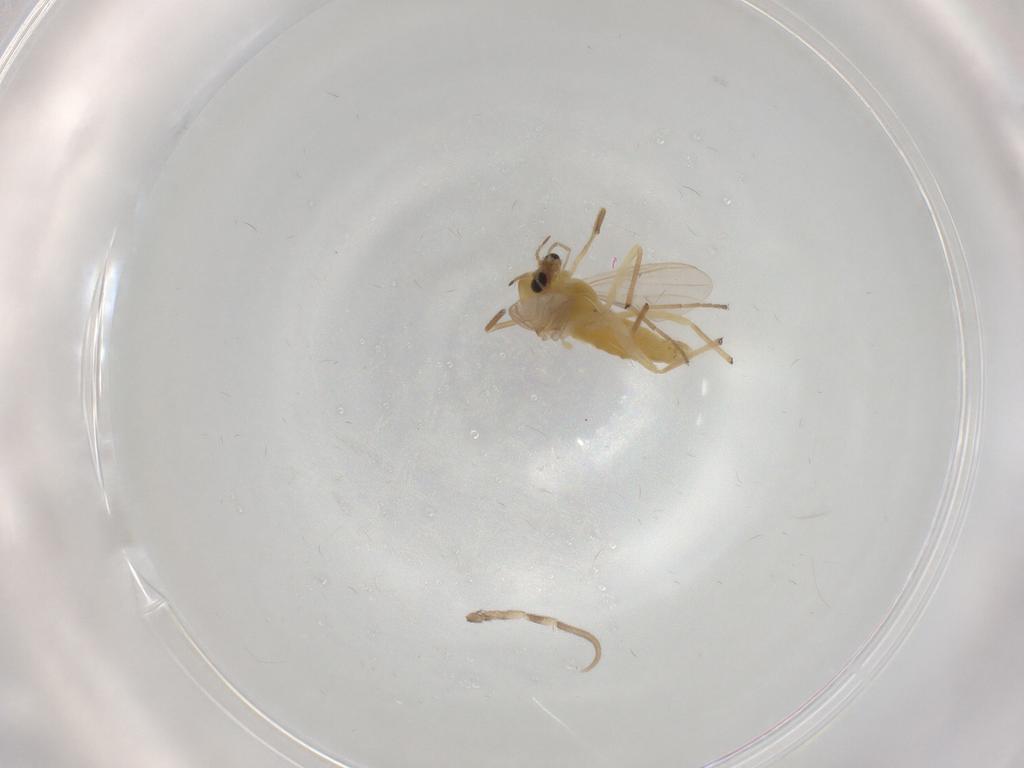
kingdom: Animalia
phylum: Arthropoda
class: Insecta
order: Diptera
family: Chironomidae
